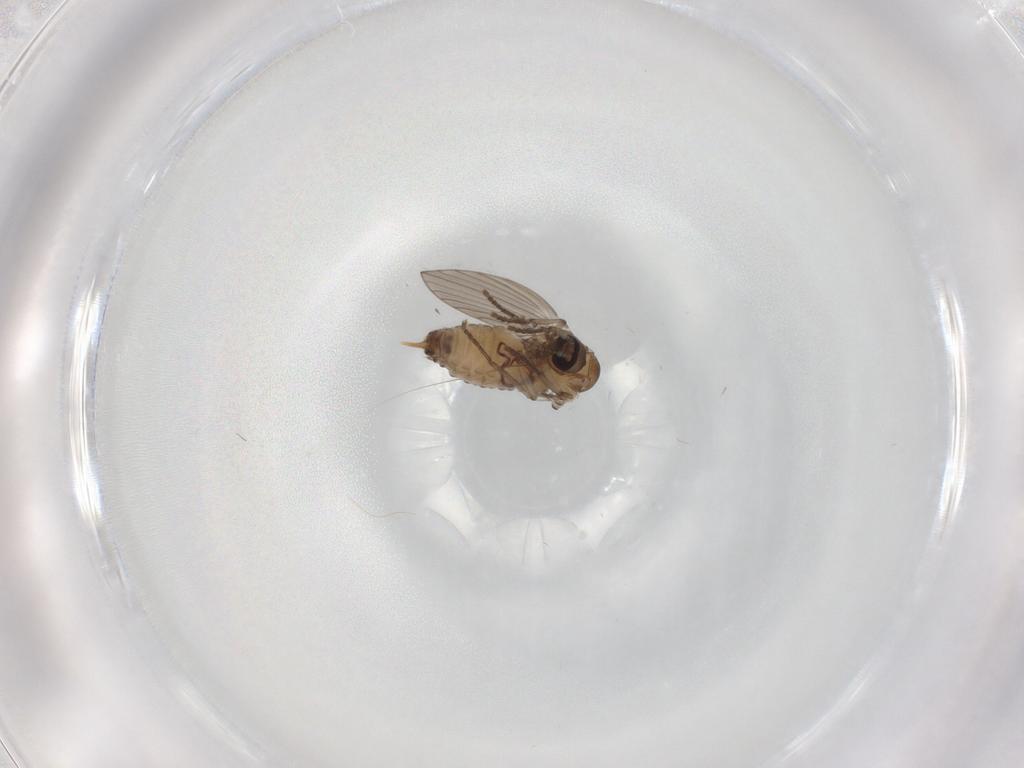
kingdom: Animalia
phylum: Arthropoda
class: Insecta
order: Diptera
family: Psychodidae
